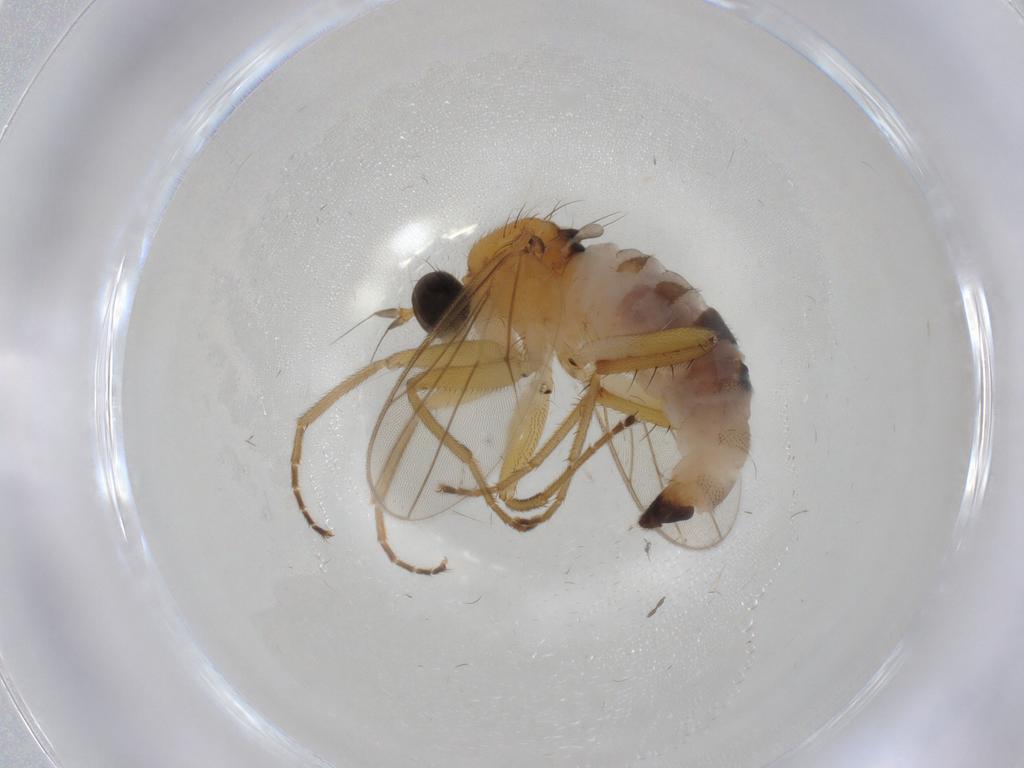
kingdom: Animalia
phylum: Arthropoda
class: Insecta
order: Diptera
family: Hybotidae
